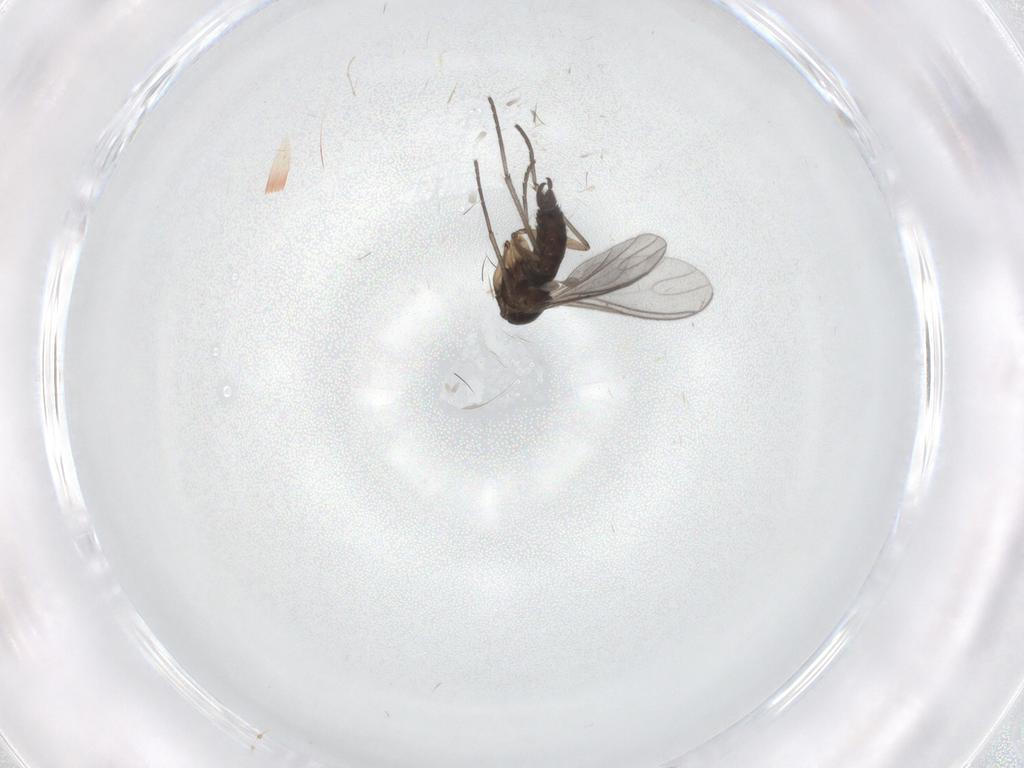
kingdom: Animalia
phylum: Arthropoda
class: Insecta
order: Diptera
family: Sciaridae
